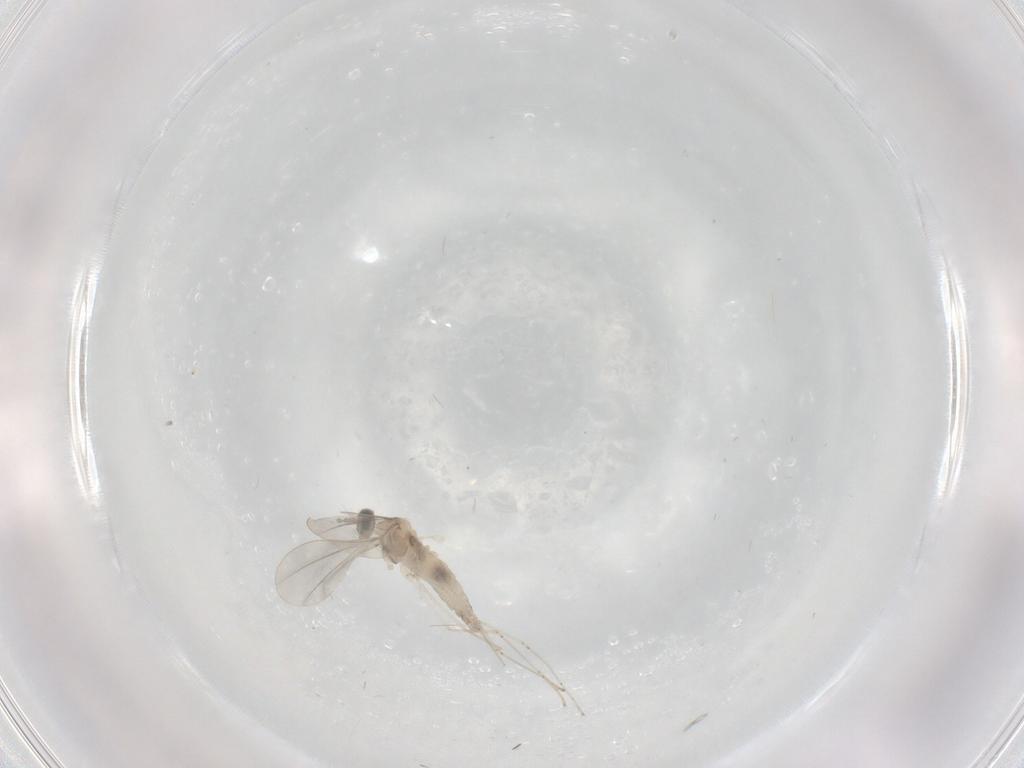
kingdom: Animalia
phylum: Arthropoda
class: Insecta
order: Diptera
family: Cecidomyiidae
